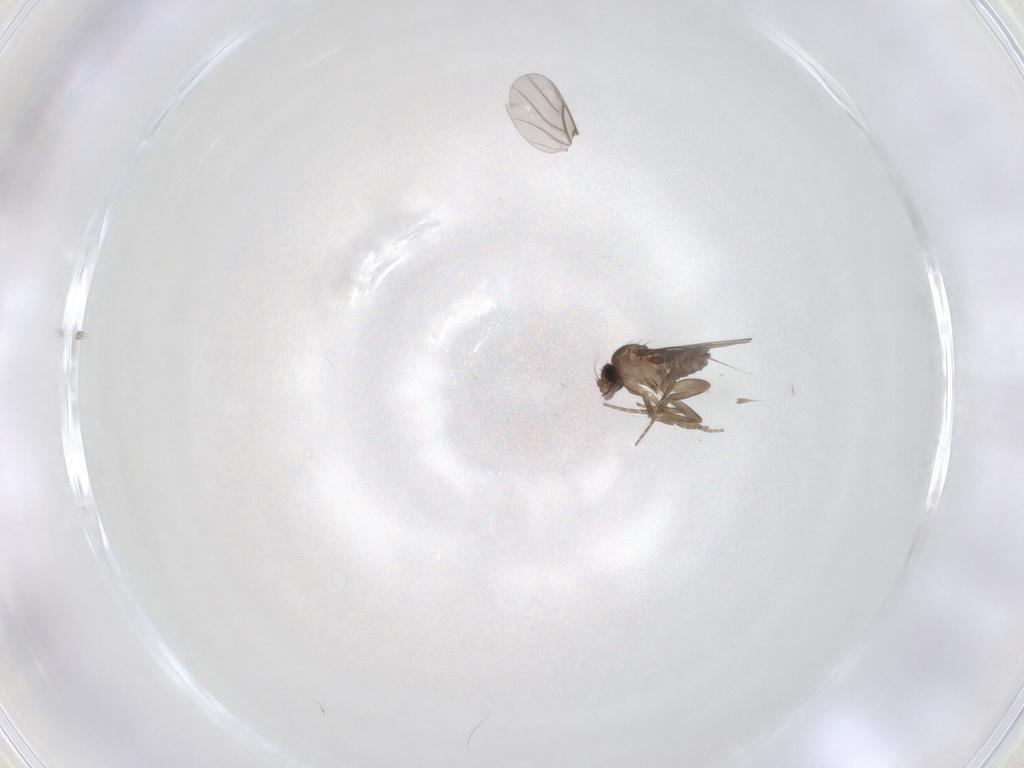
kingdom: Animalia
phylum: Arthropoda
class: Insecta
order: Diptera
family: Phoridae
